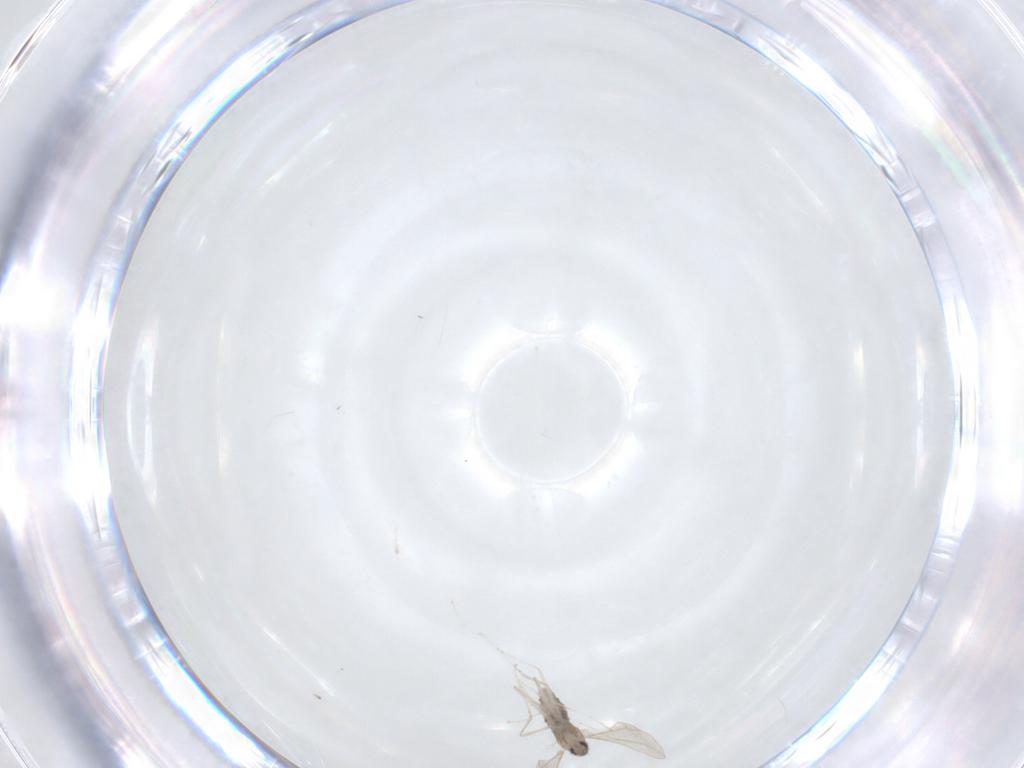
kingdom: Animalia
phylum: Arthropoda
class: Insecta
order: Diptera
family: Cecidomyiidae
